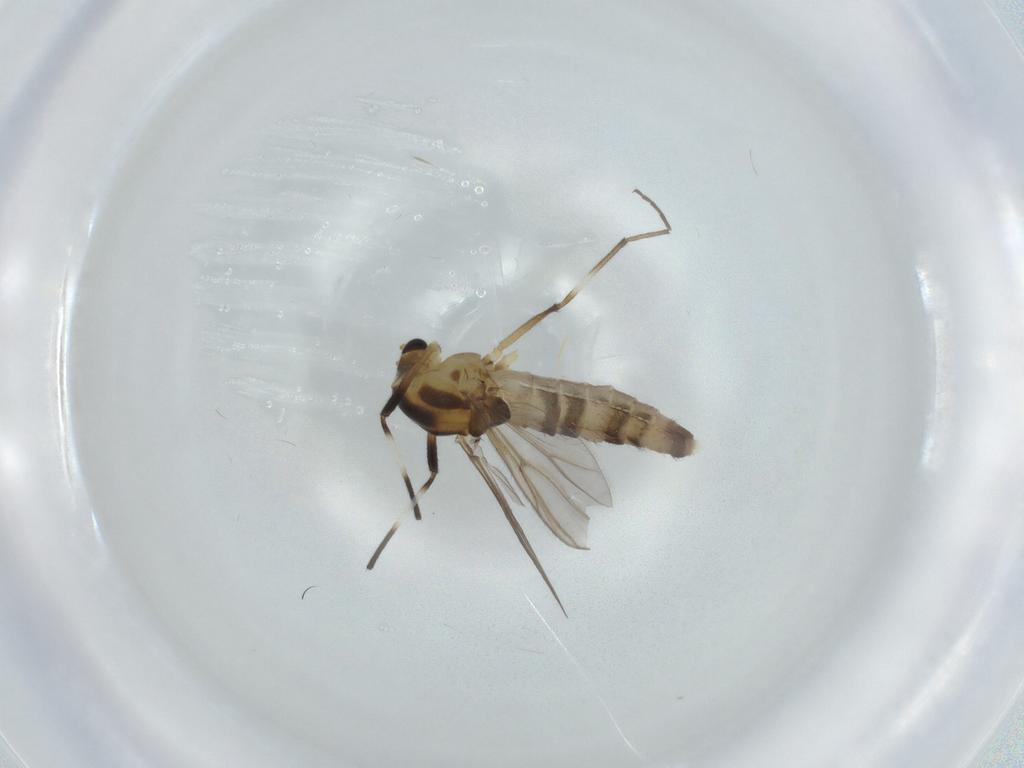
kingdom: Animalia
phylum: Arthropoda
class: Insecta
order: Diptera
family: Chironomidae
